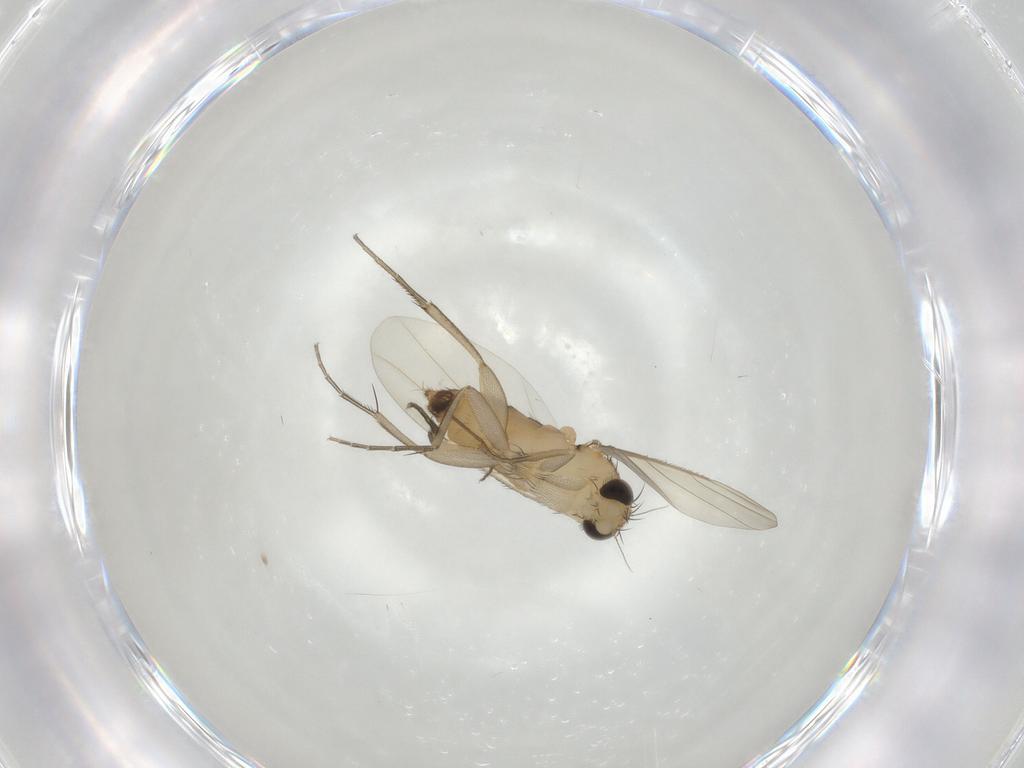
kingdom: Animalia
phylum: Arthropoda
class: Insecta
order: Diptera
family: Phoridae
